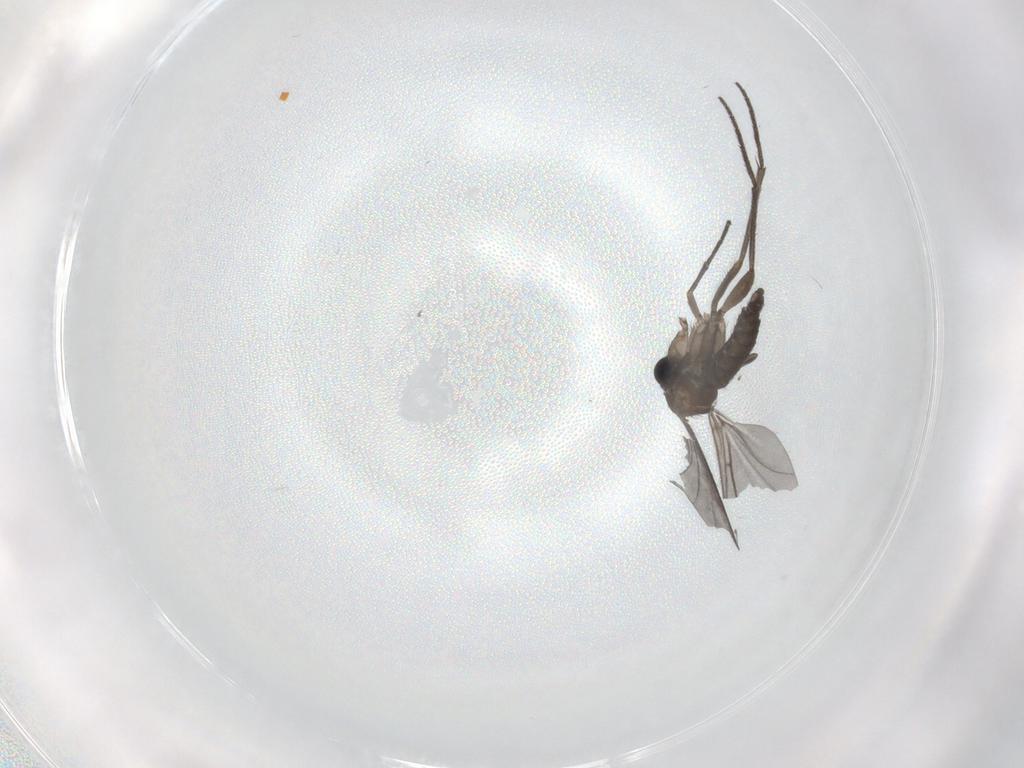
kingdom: Animalia
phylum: Arthropoda
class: Insecta
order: Diptera
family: Sciaridae
